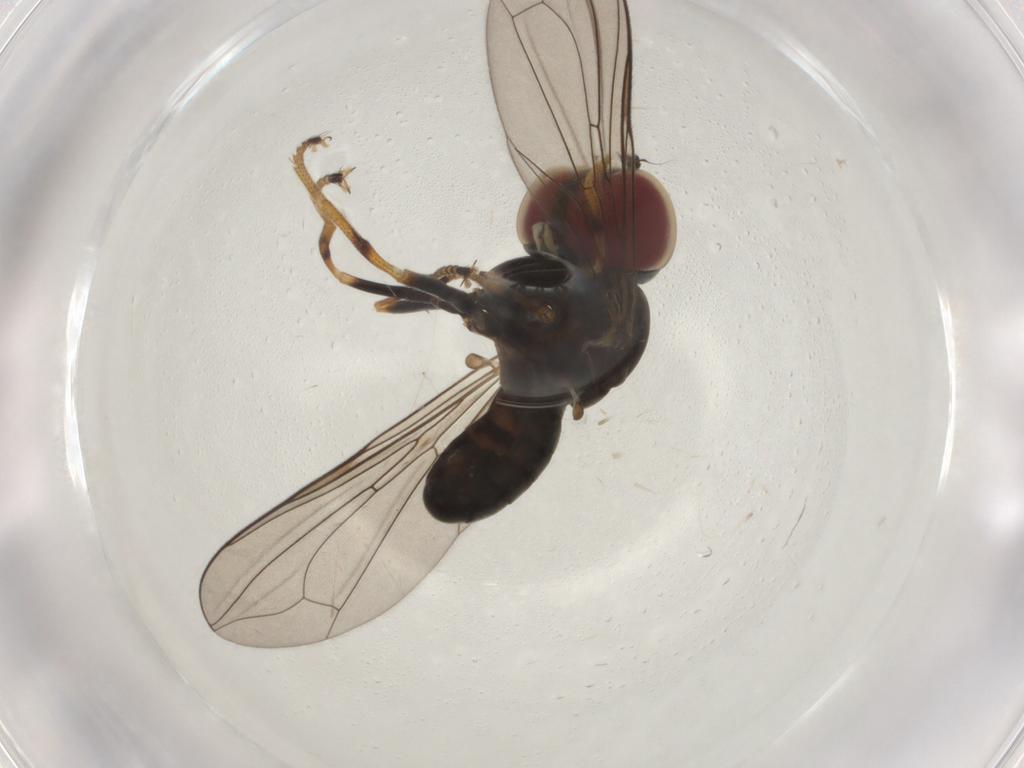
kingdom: Animalia
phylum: Arthropoda
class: Insecta
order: Diptera
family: Pipunculidae
